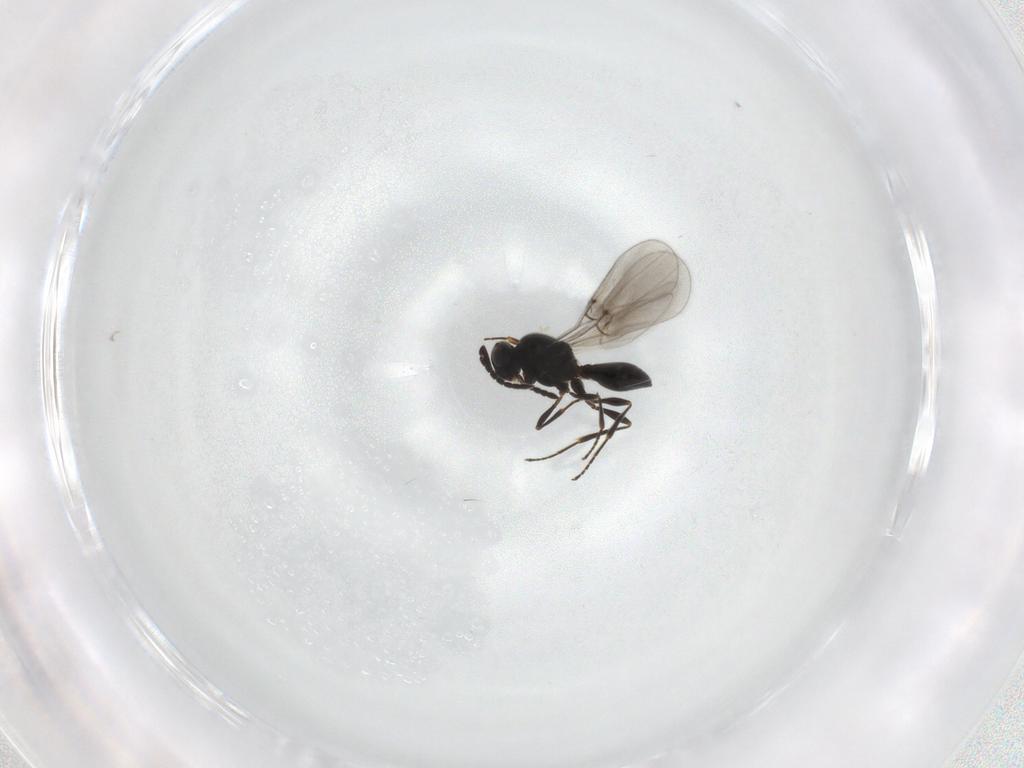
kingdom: Animalia
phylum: Arthropoda
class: Insecta
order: Hymenoptera
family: Platygastridae
